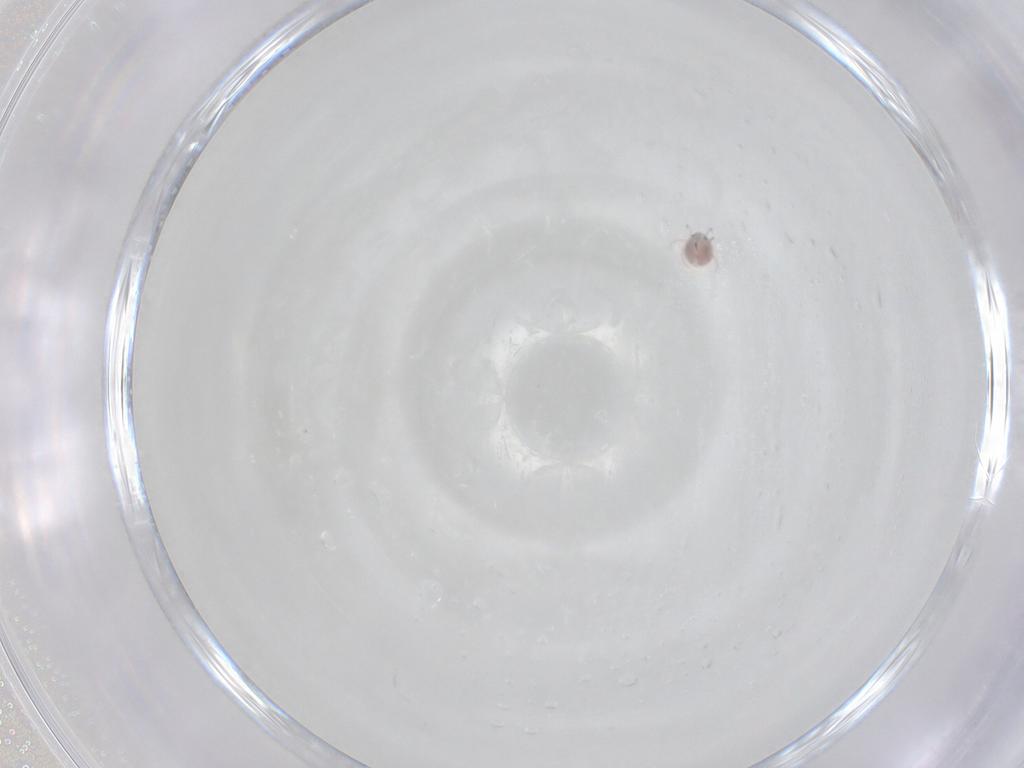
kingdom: Animalia
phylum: Arthropoda
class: Arachnida
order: Trombidiformes
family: Pionidae
